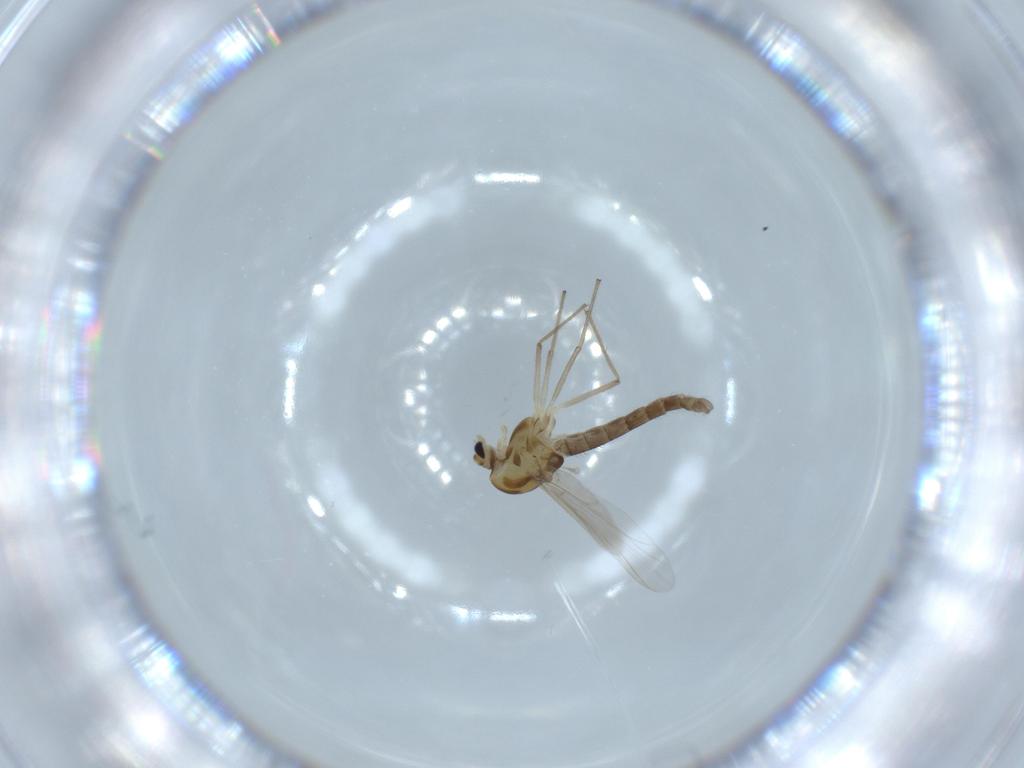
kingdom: Animalia
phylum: Arthropoda
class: Insecta
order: Diptera
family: Chironomidae
